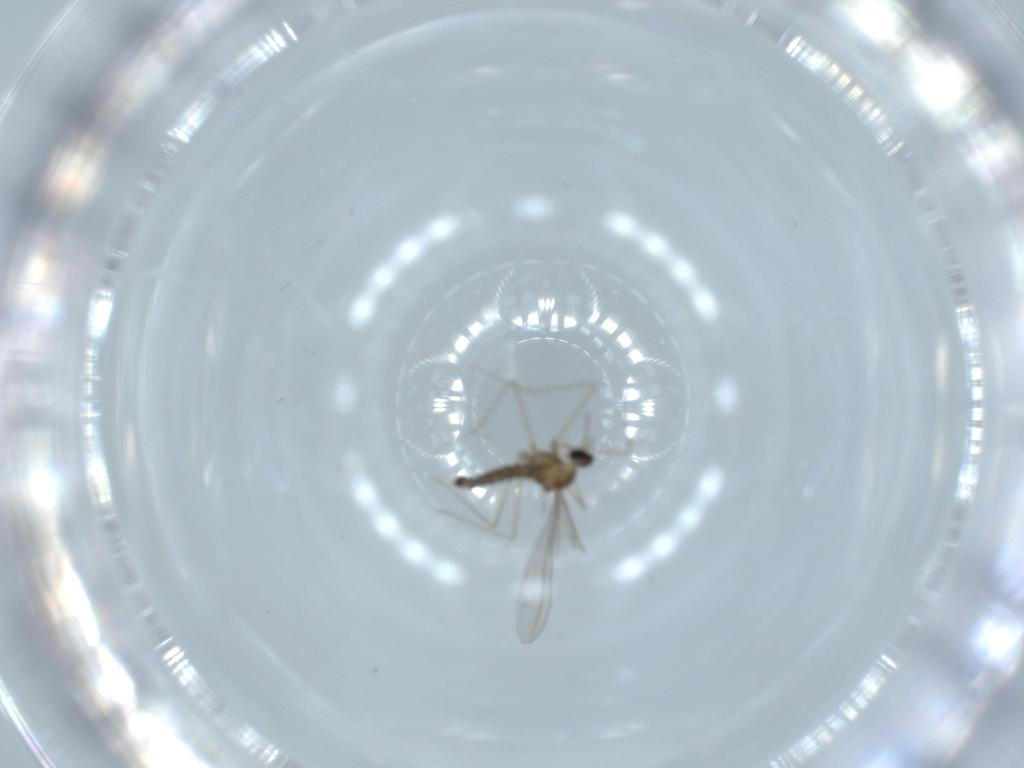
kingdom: Animalia
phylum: Arthropoda
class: Insecta
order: Diptera
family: Cecidomyiidae
